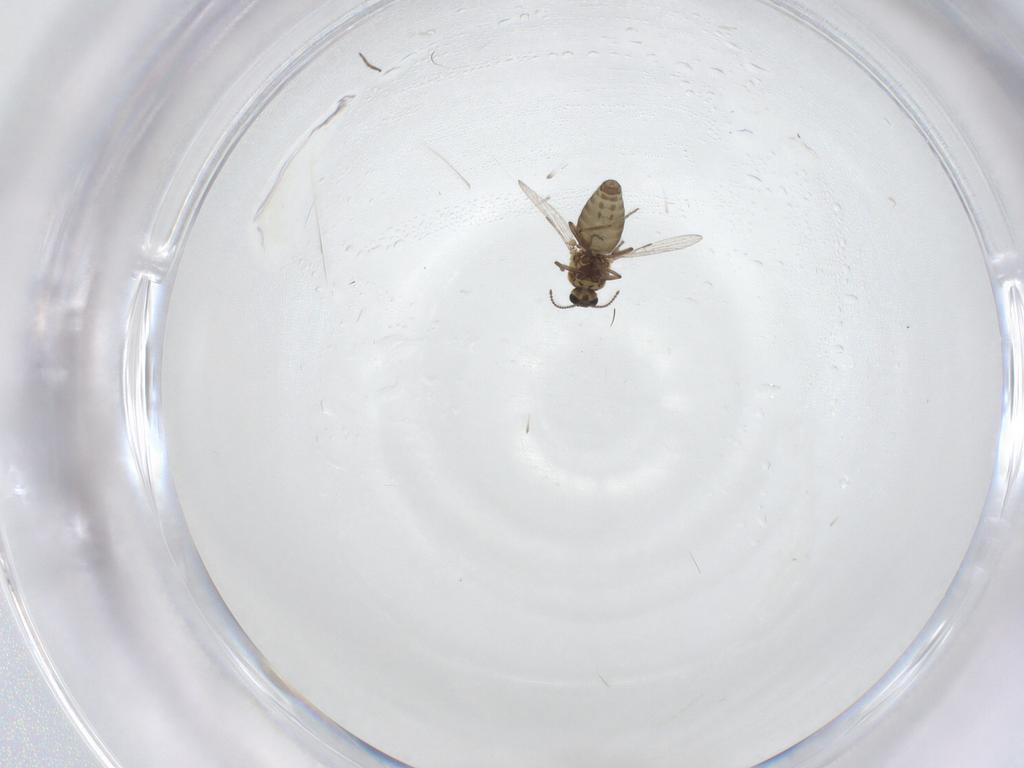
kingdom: Animalia
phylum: Arthropoda
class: Insecta
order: Diptera
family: Ceratopogonidae
